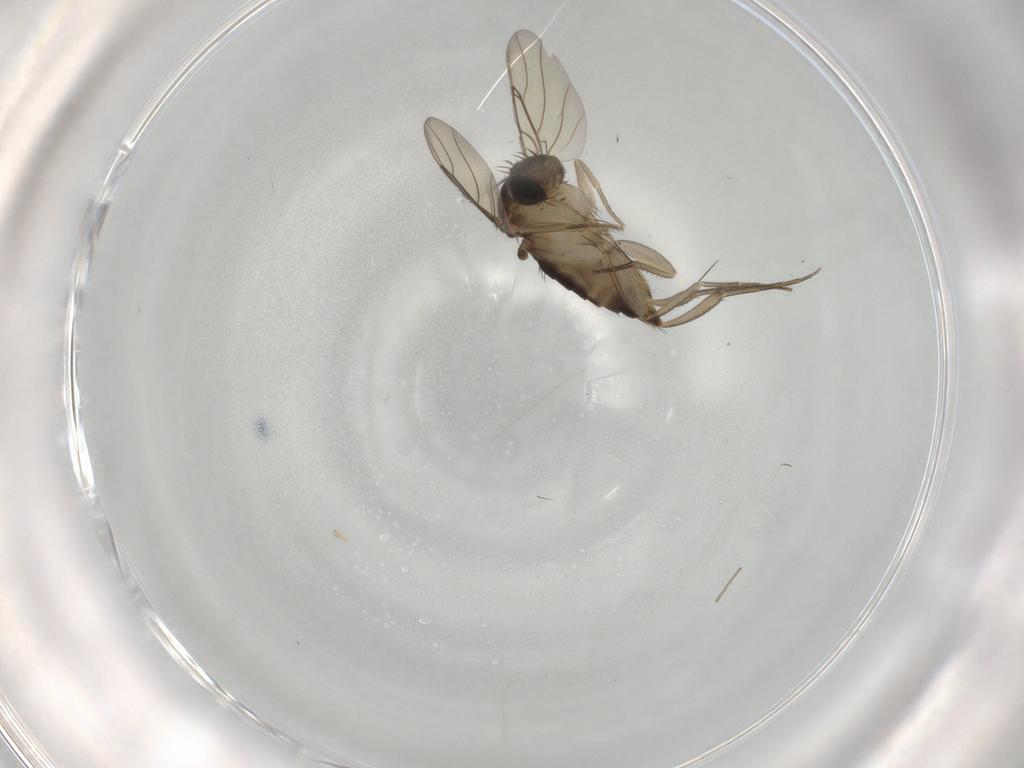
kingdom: Animalia
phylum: Arthropoda
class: Insecta
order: Diptera
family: Phoridae
